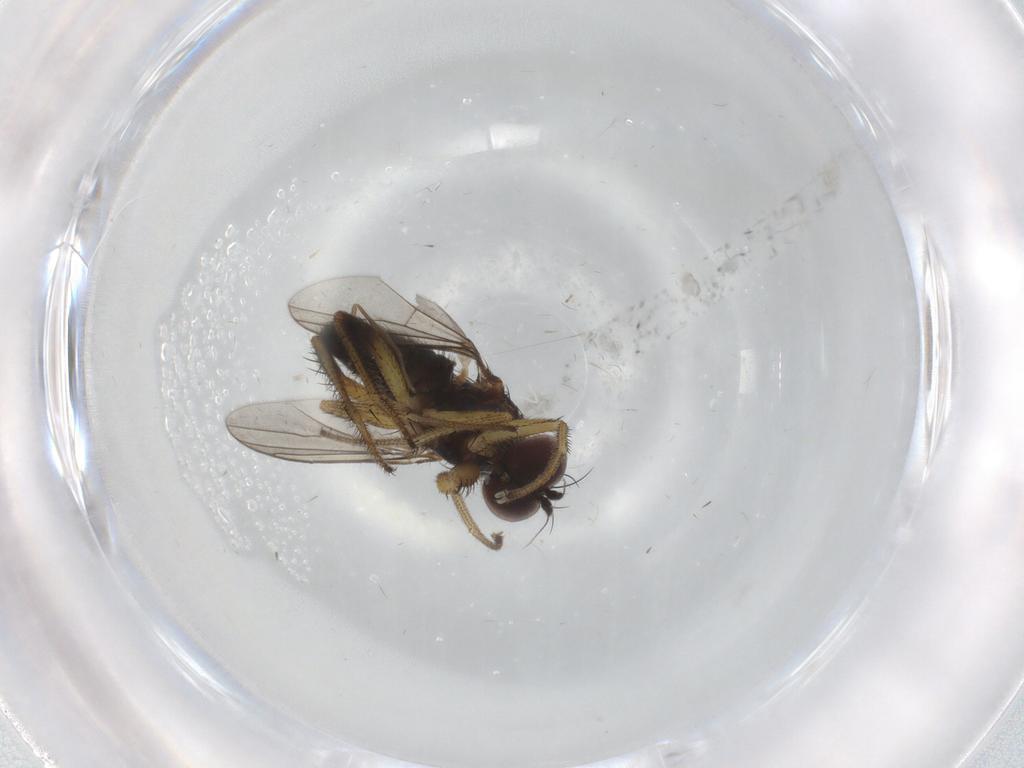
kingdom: Animalia
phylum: Arthropoda
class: Insecta
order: Diptera
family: Dolichopodidae
